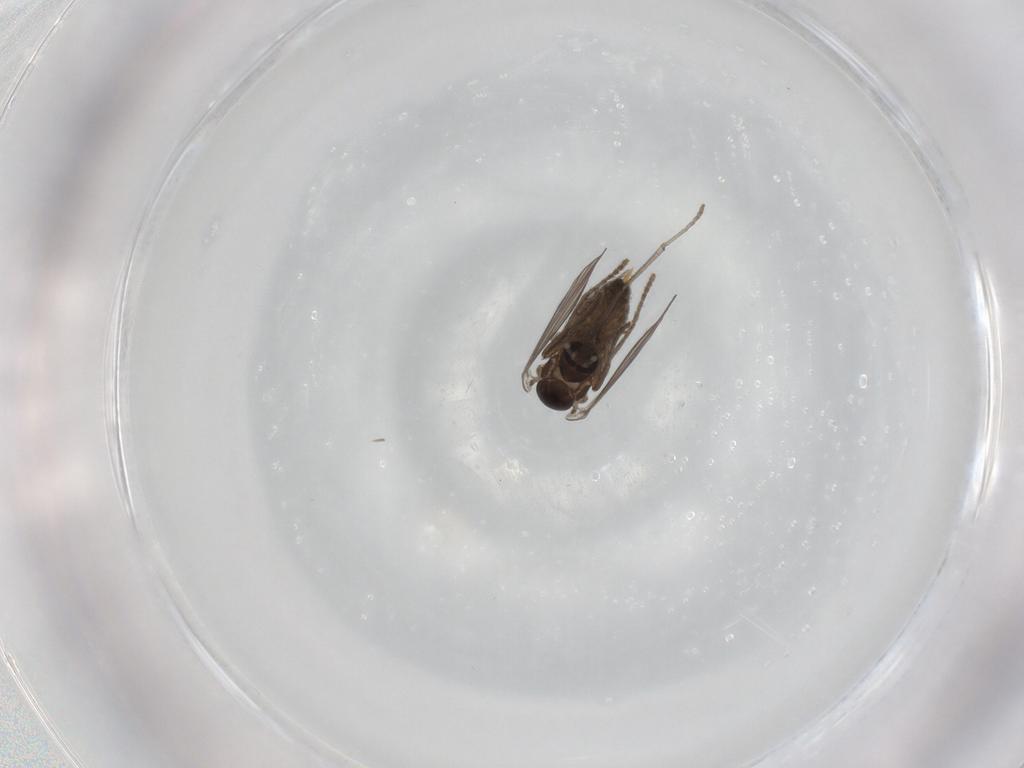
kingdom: Animalia
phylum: Arthropoda
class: Insecta
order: Diptera
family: Psychodidae
